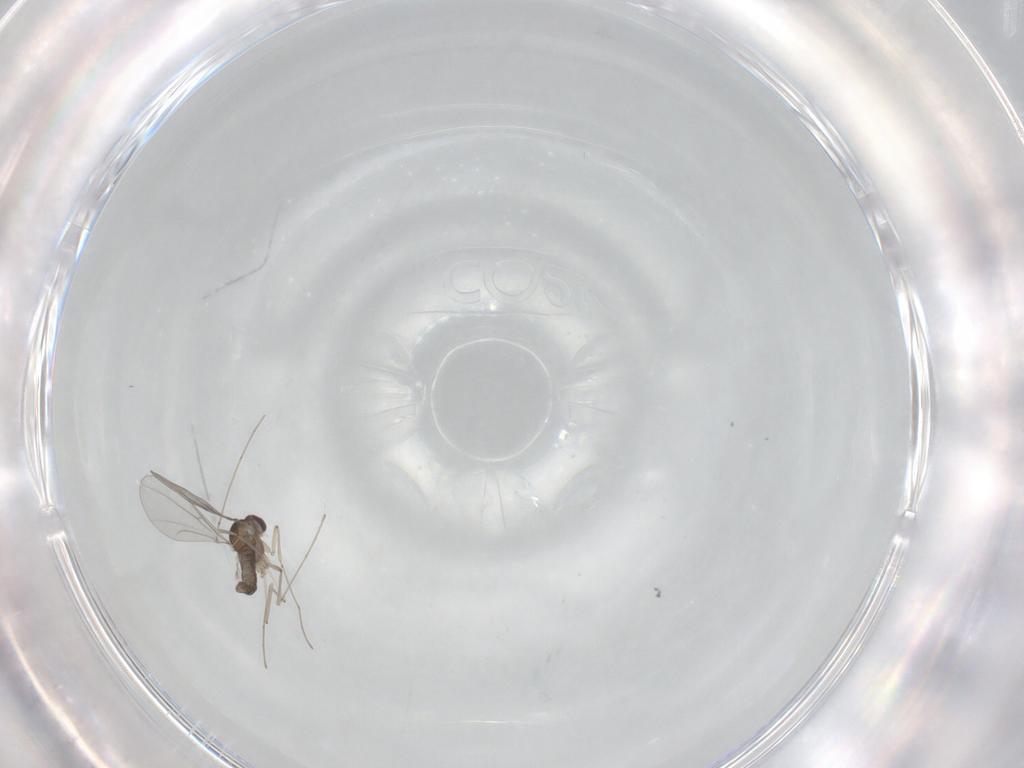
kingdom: Animalia
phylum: Arthropoda
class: Insecta
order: Diptera
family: Cecidomyiidae
